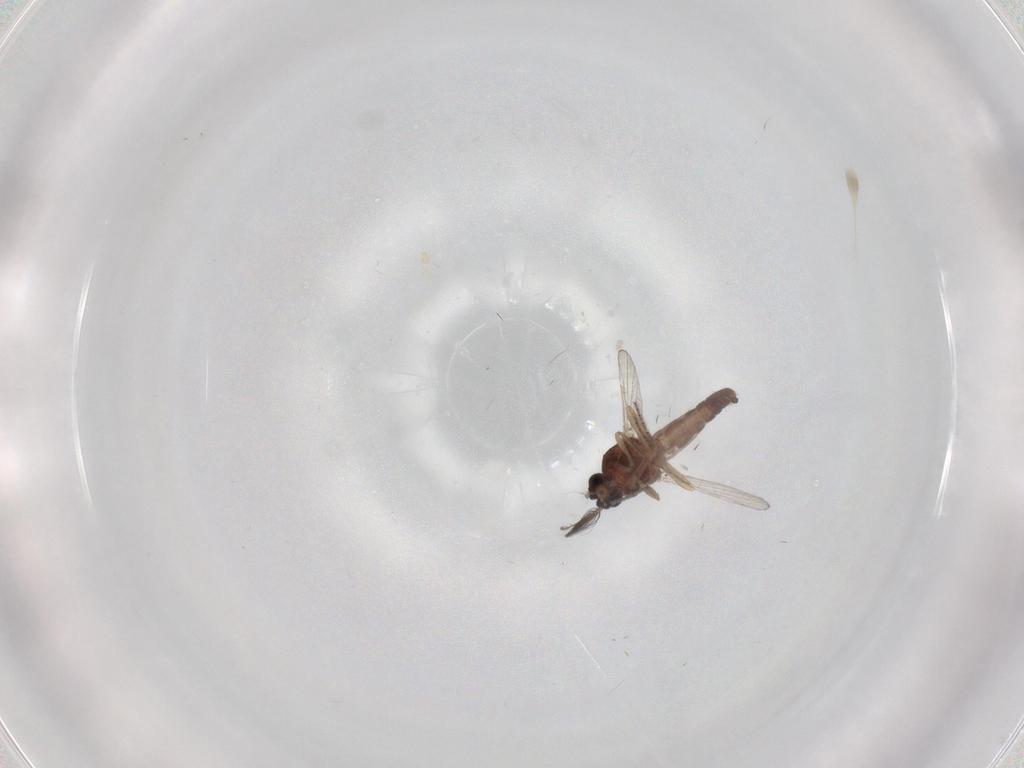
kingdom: Animalia
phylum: Arthropoda
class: Insecta
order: Diptera
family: Ceratopogonidae
